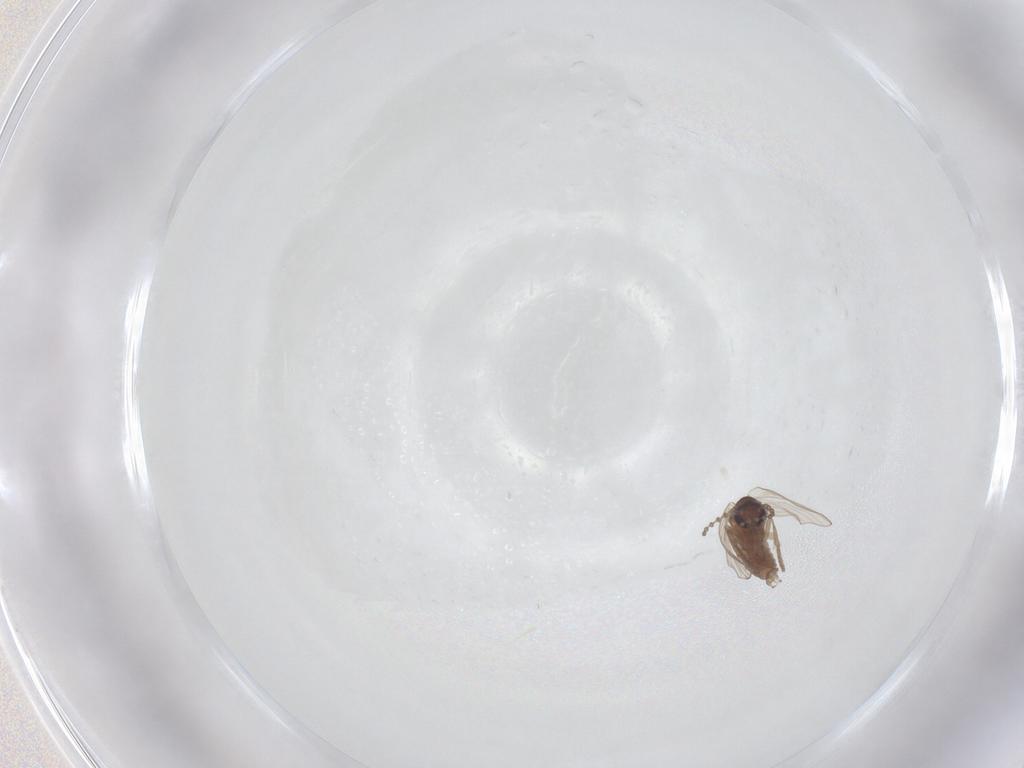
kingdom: Animalia
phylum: Arthropoda
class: Insecta
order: Diptera
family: Psychodidae
